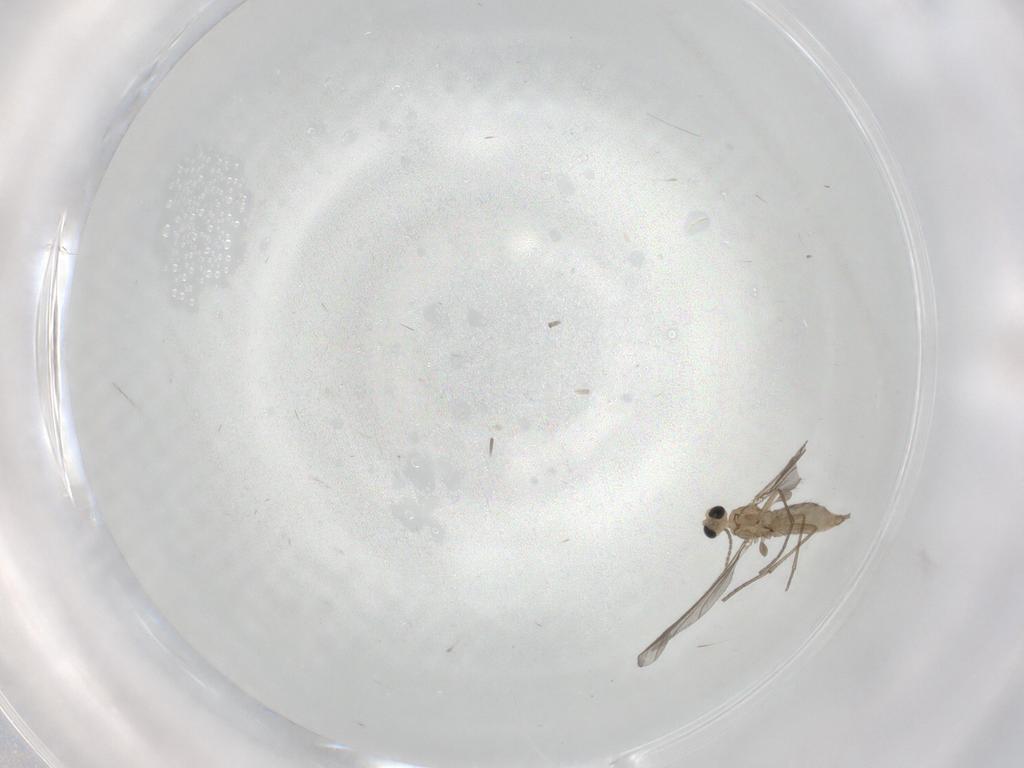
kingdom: Animalia
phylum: Arthropoda
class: Insecta
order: Diptera
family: Sciaridae
